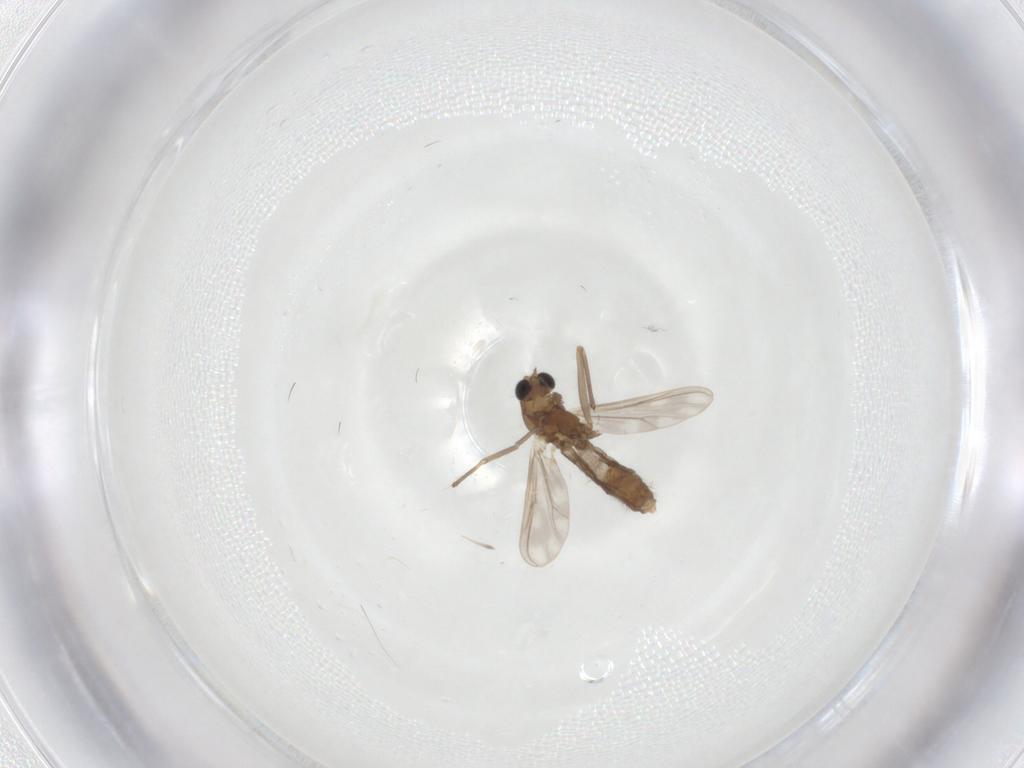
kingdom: Animalia
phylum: Arthropoda
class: Insecta
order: Diptera
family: Chironomidae
